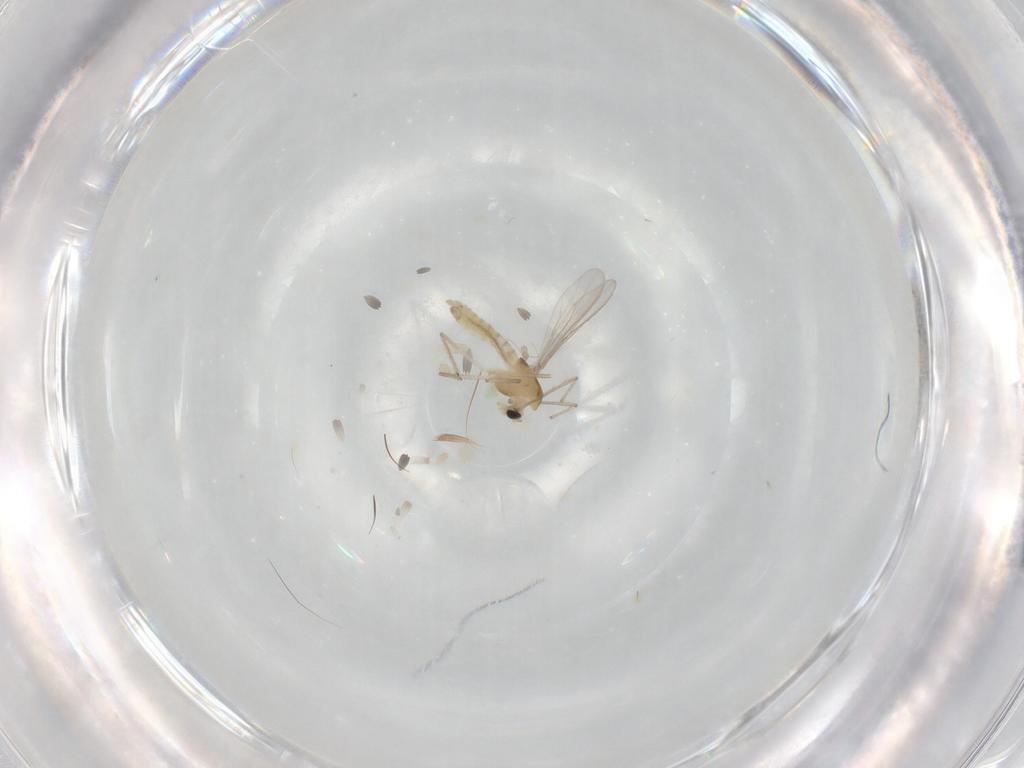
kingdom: Animalia
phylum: Arthropoda
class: Insecta
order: Diptera
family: Chironomidae
